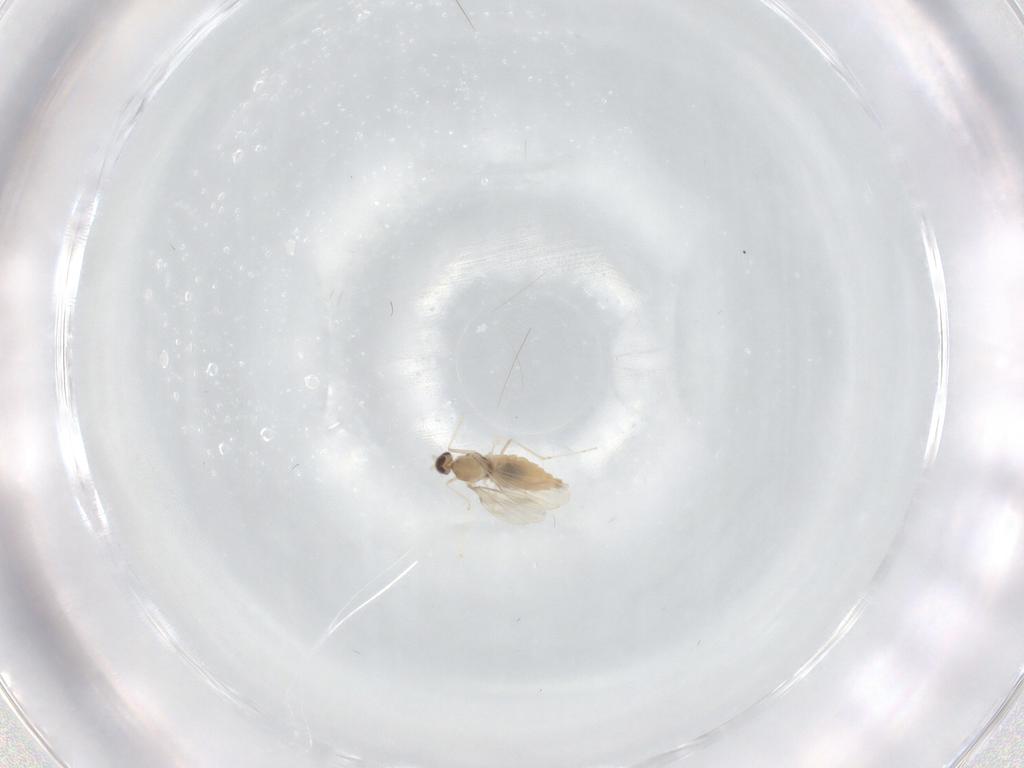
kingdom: Animalia
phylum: Arthropoda
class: Insecta
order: Diptera
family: Cecidomyiidae
